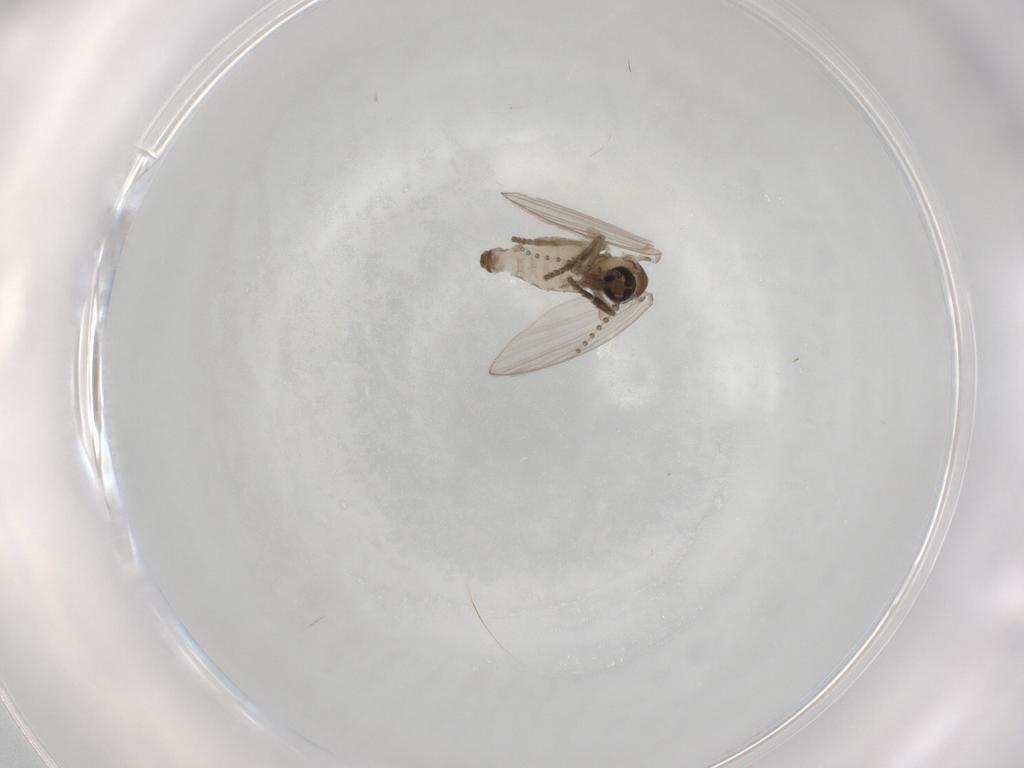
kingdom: Animalia
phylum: Arthropoda
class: Insecta
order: Diptera
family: Psychodidae
